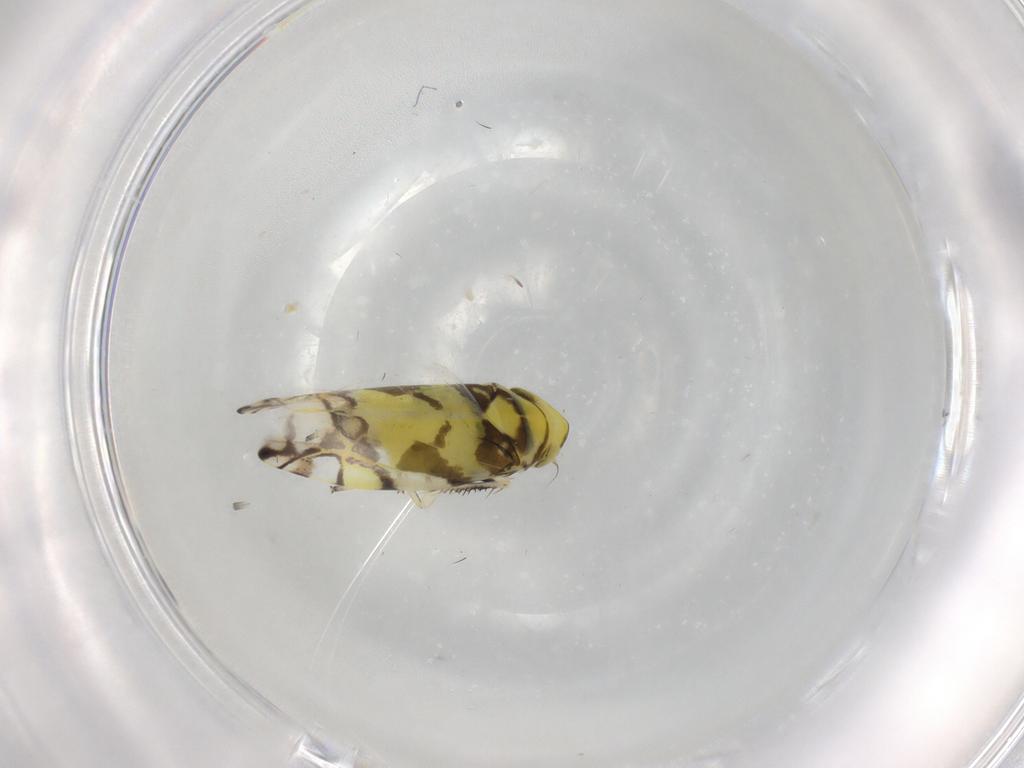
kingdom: Animalia
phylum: Arthropoda
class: Insecta
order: Hemiptera
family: Cicadellidae
